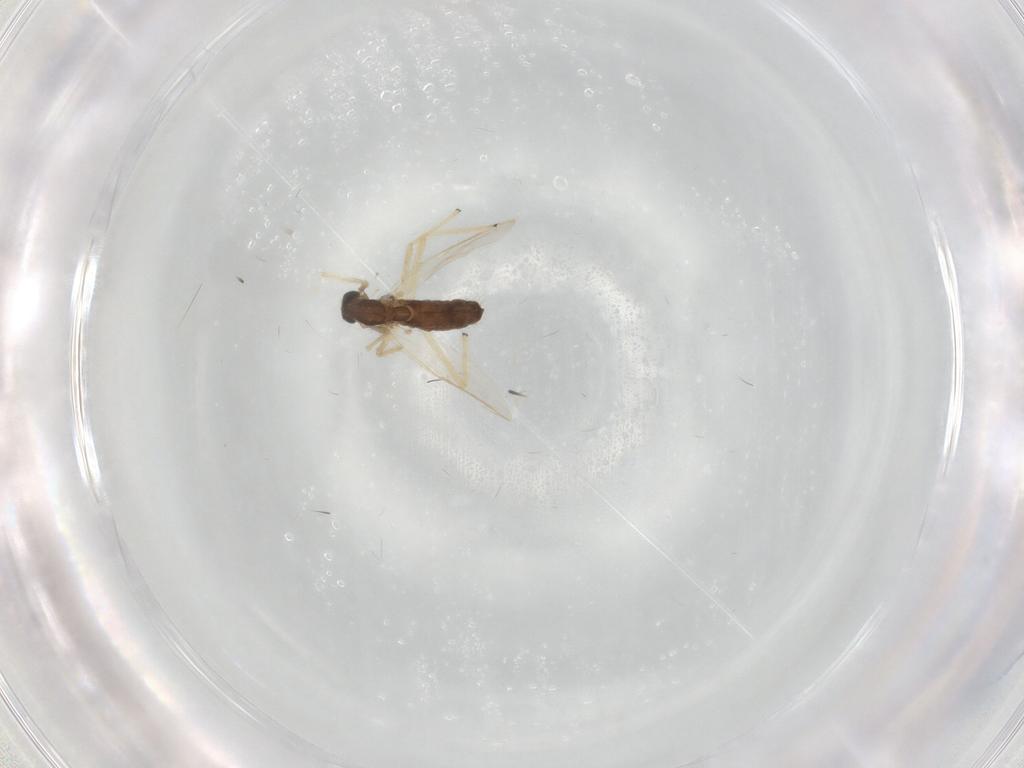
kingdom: Animalia
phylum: Arthropoda
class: Insecta
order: Diptera
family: Chironomidae
